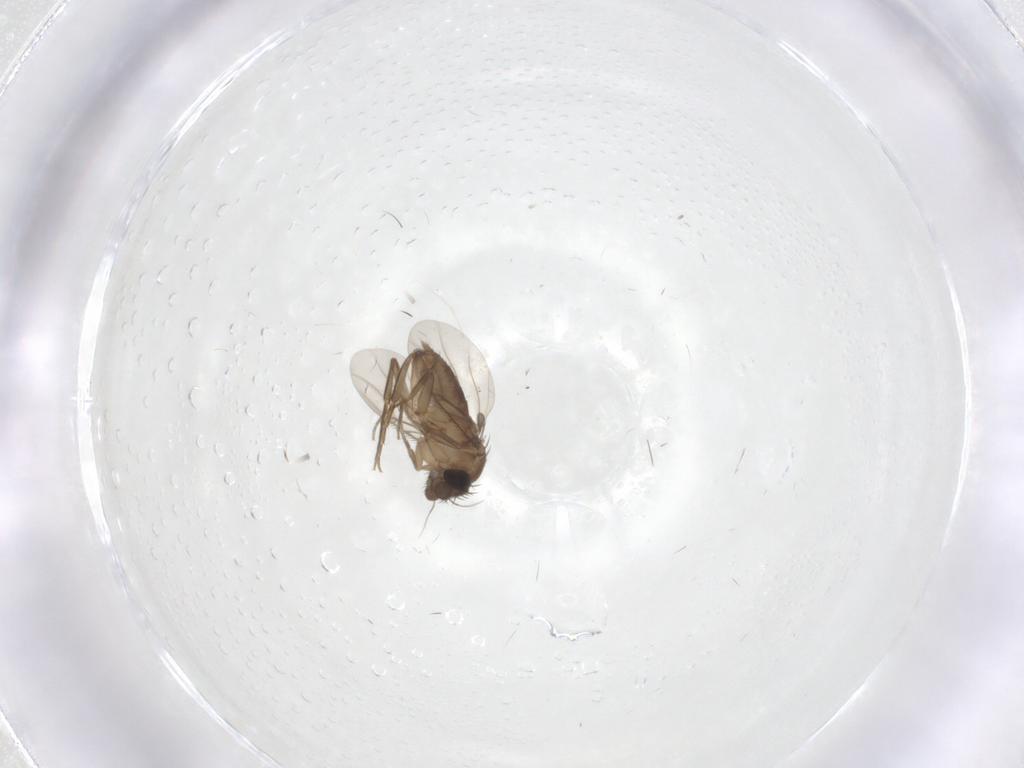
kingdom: Animalia
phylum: Arthropoda
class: Insecta
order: Diptera
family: Phoridae
